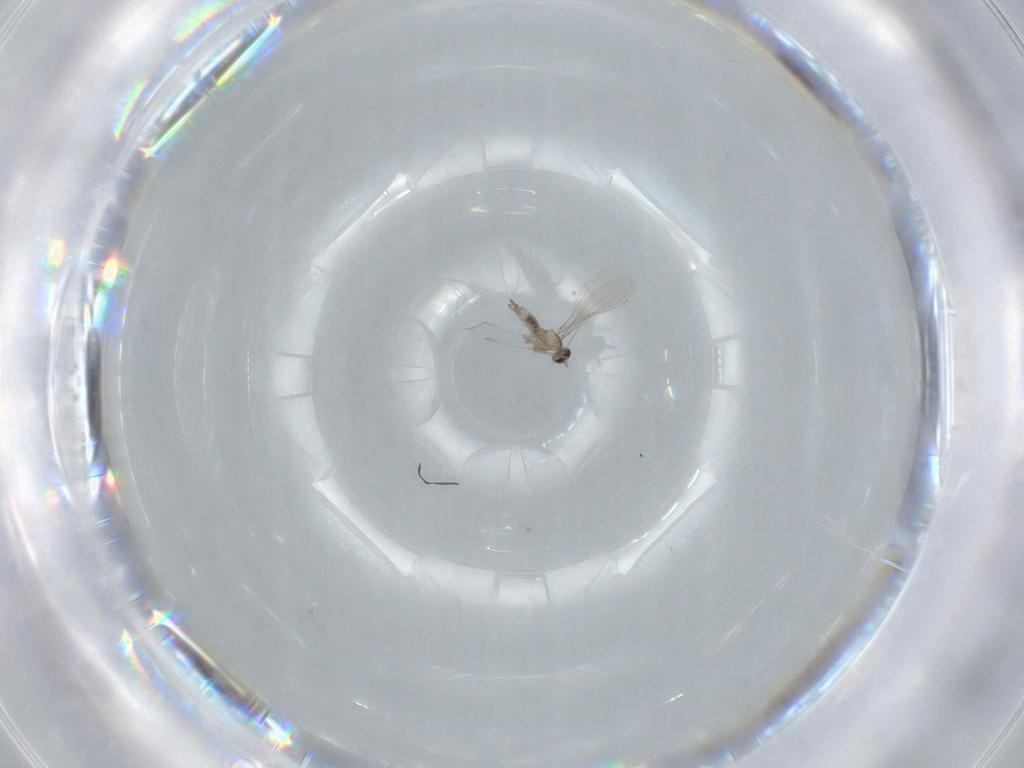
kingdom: Animalia
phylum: Arthropoda
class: Insecta
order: Diptera
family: Cecidomyiidae
